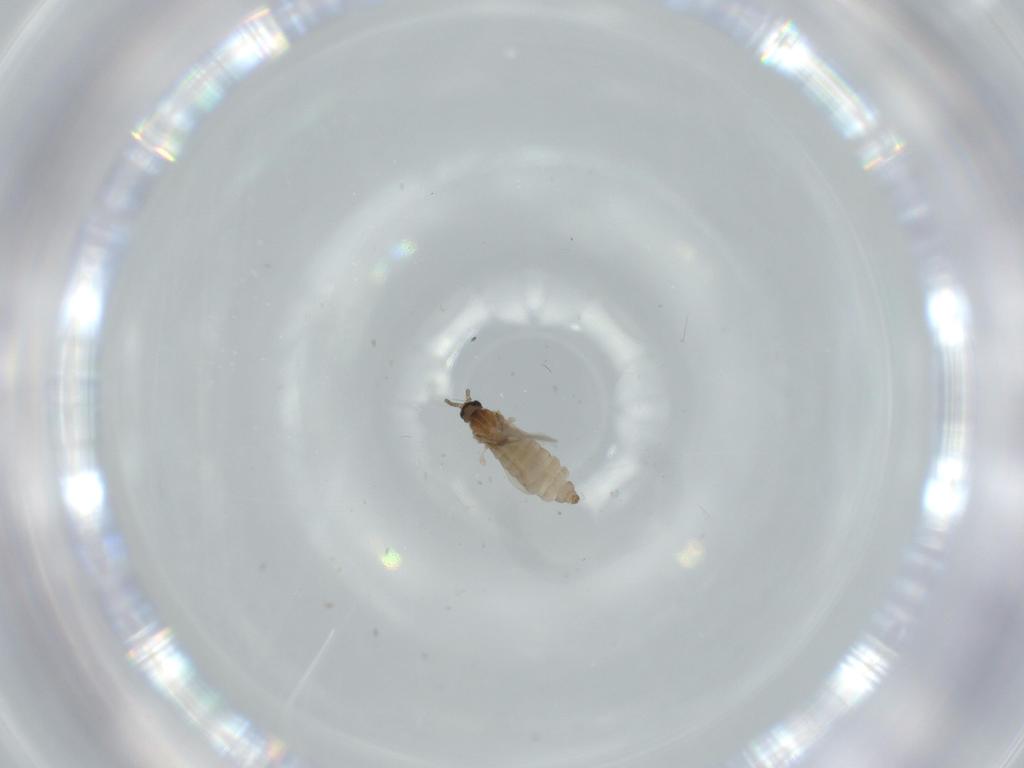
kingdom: Animalia
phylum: Arthropoda
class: Insecta
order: Diptera
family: Cecidomyiidae
